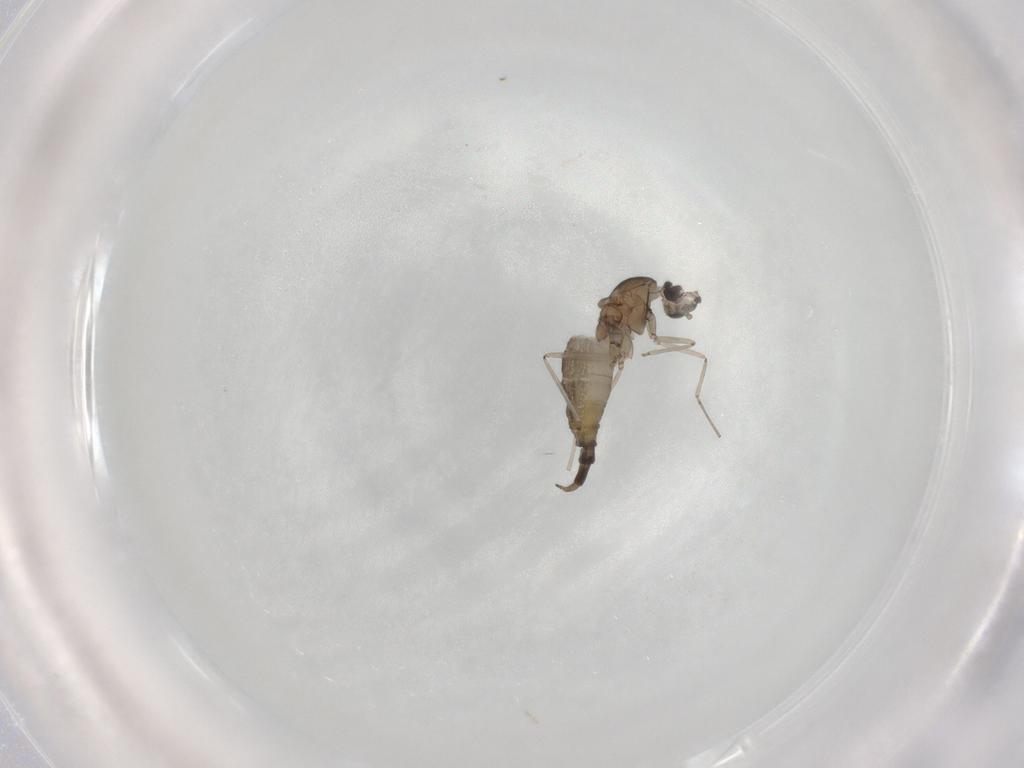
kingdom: Animalia
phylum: Arthropoda
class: Insecta
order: Diptera
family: Cecidomyiidae
